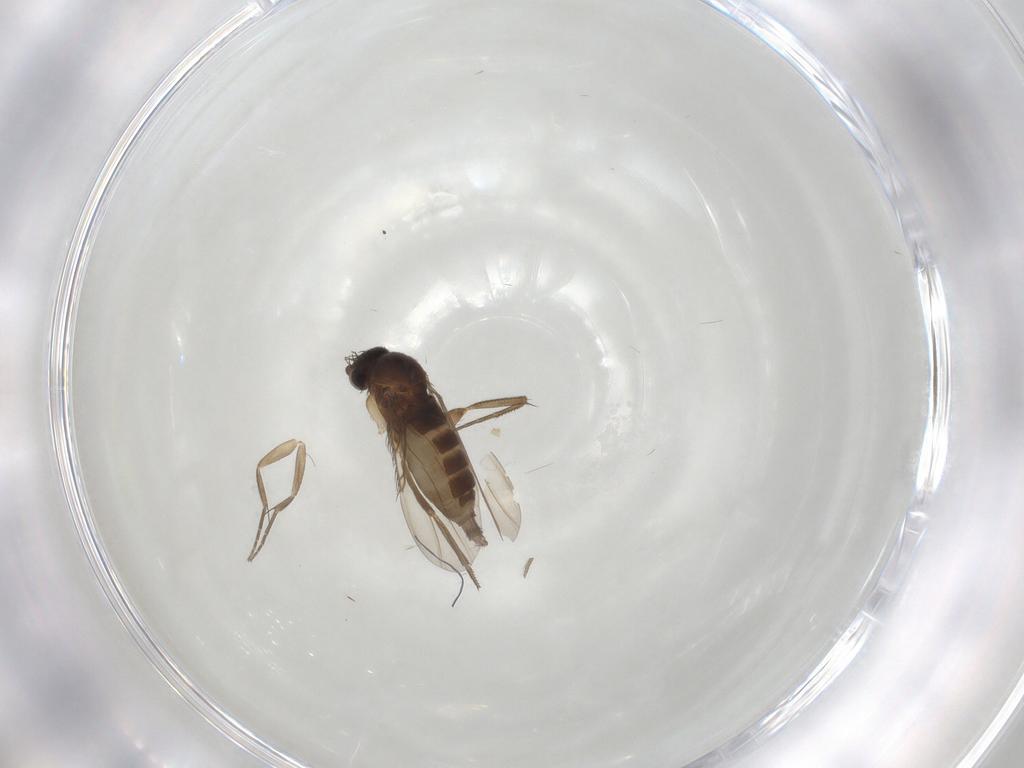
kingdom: Animalia
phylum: Arthropoda
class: Insecta
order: Diptera
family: Phoridae
